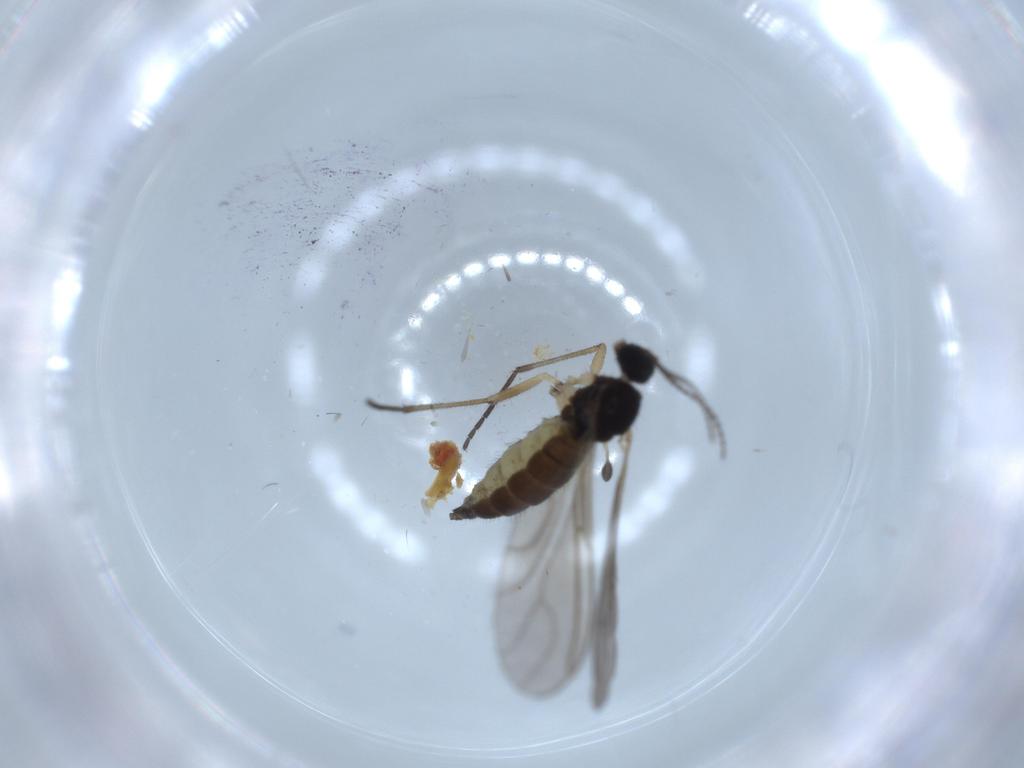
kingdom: Animalia
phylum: Arthropoda
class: Insecta
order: Diptera
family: Sciaridae
